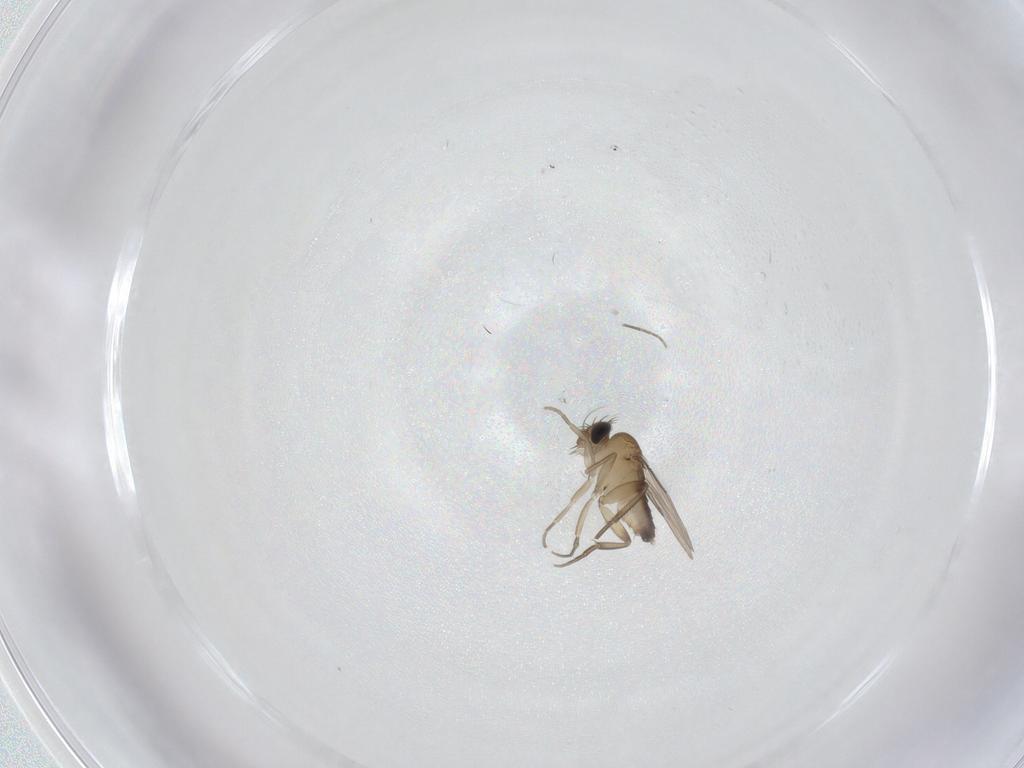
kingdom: Animalia
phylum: Arthropoda
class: Insecta
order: Diptera
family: Phoridae
